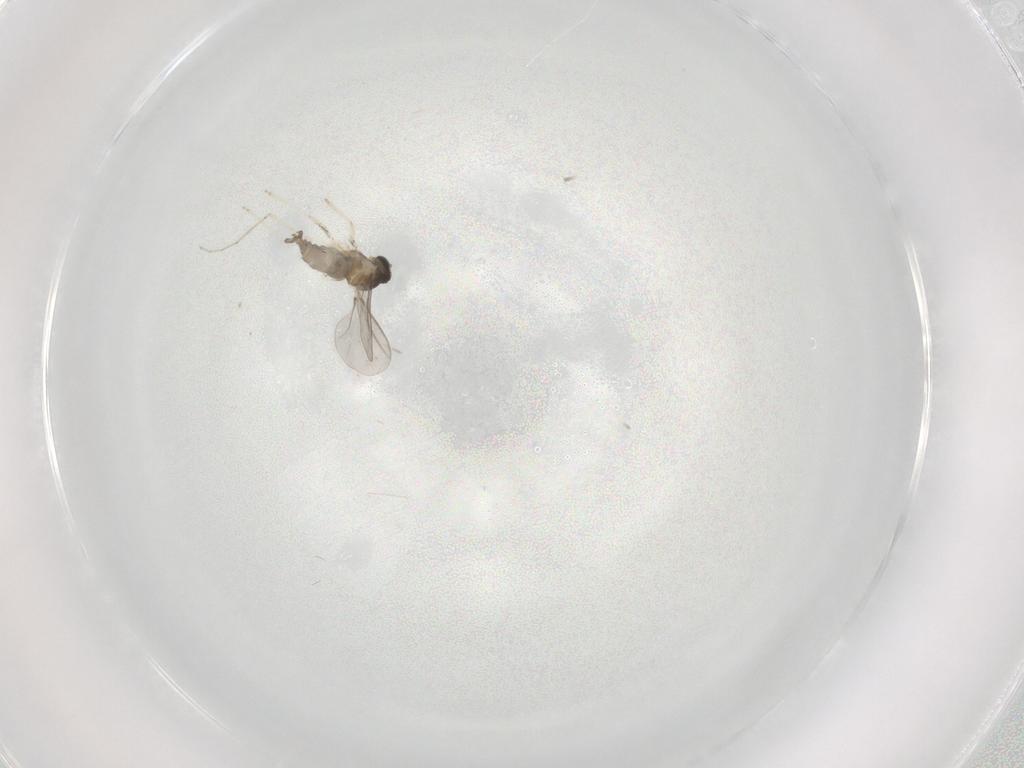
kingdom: Animalia
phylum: Arthropoda
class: Insecta
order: Diptera
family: Cecidomyiidae
